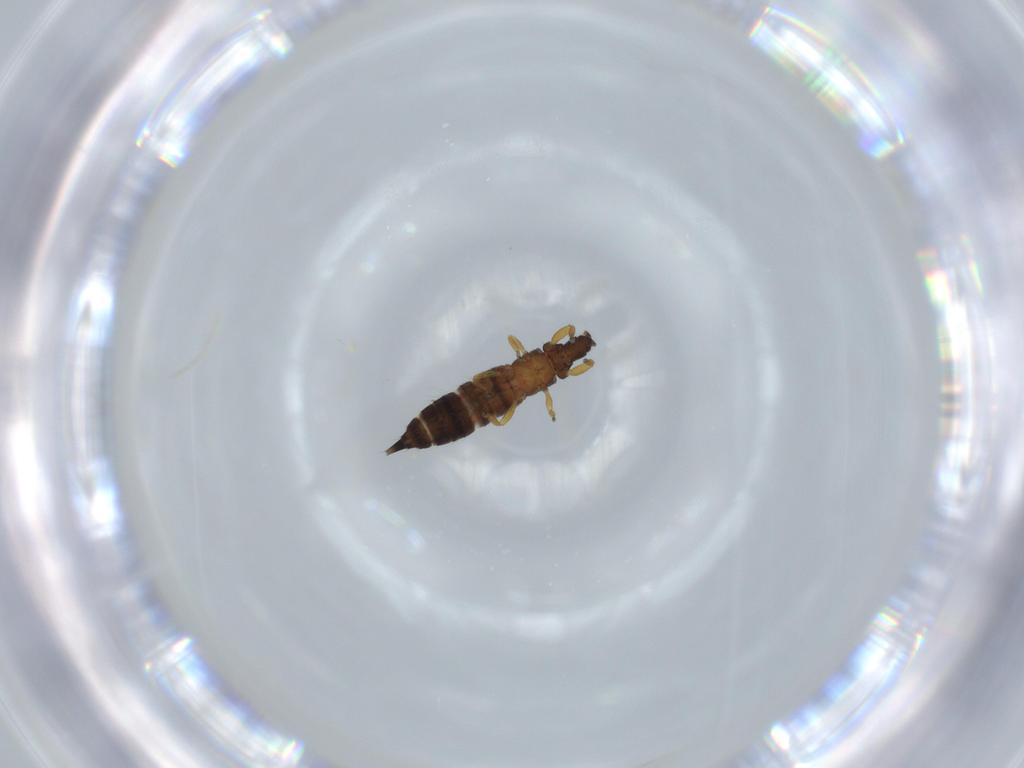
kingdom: Animalia
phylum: Arthropoda
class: Insecta
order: Thysanoptera
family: Phlaeothripidae
